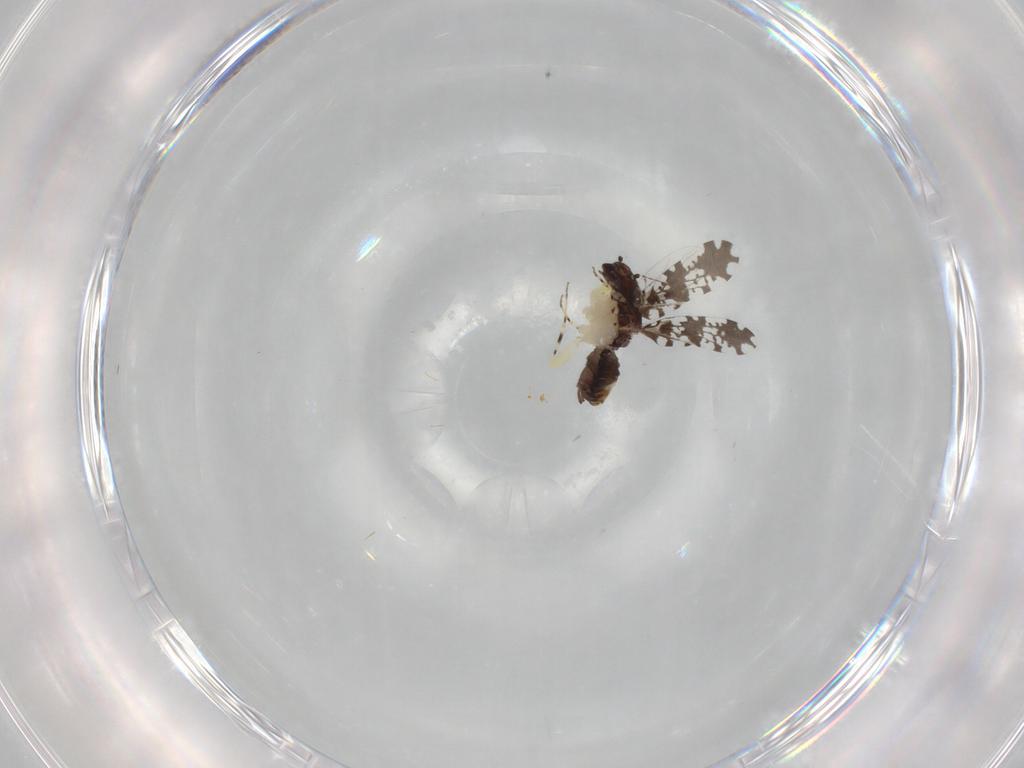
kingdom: Animalia
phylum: Arthropoda
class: Insecta
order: Psocodea
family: Psoquillidae
